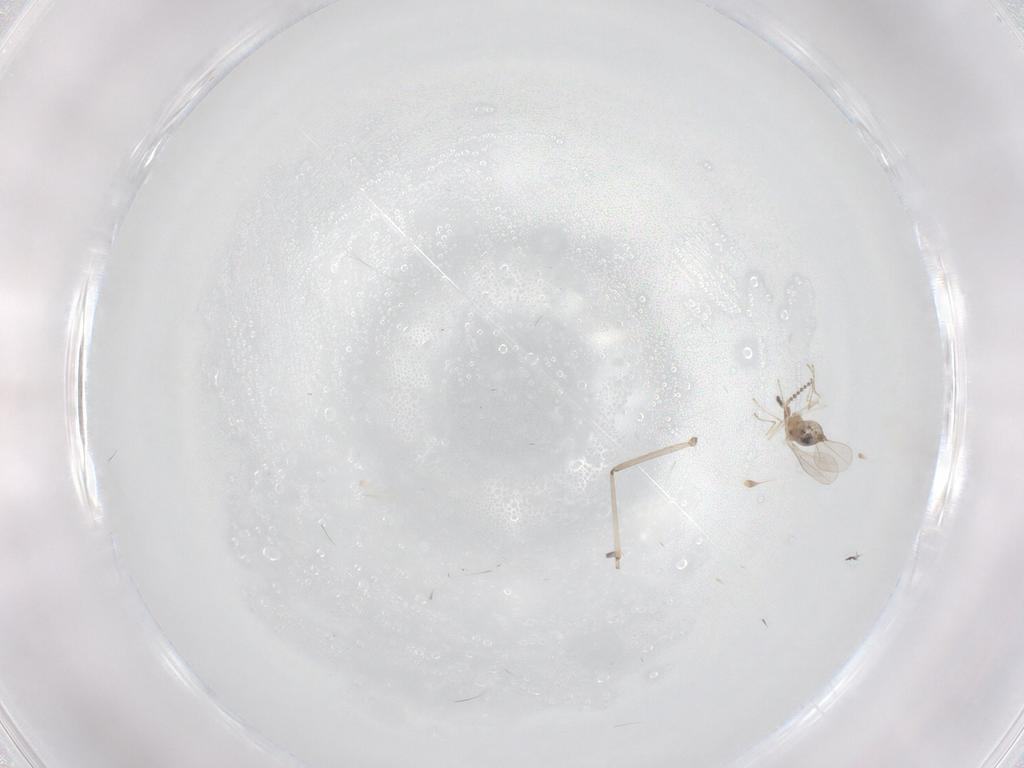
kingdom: Animalia
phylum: Arthropoda
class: Insecta
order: Diptera
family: Cecidomyiidae
